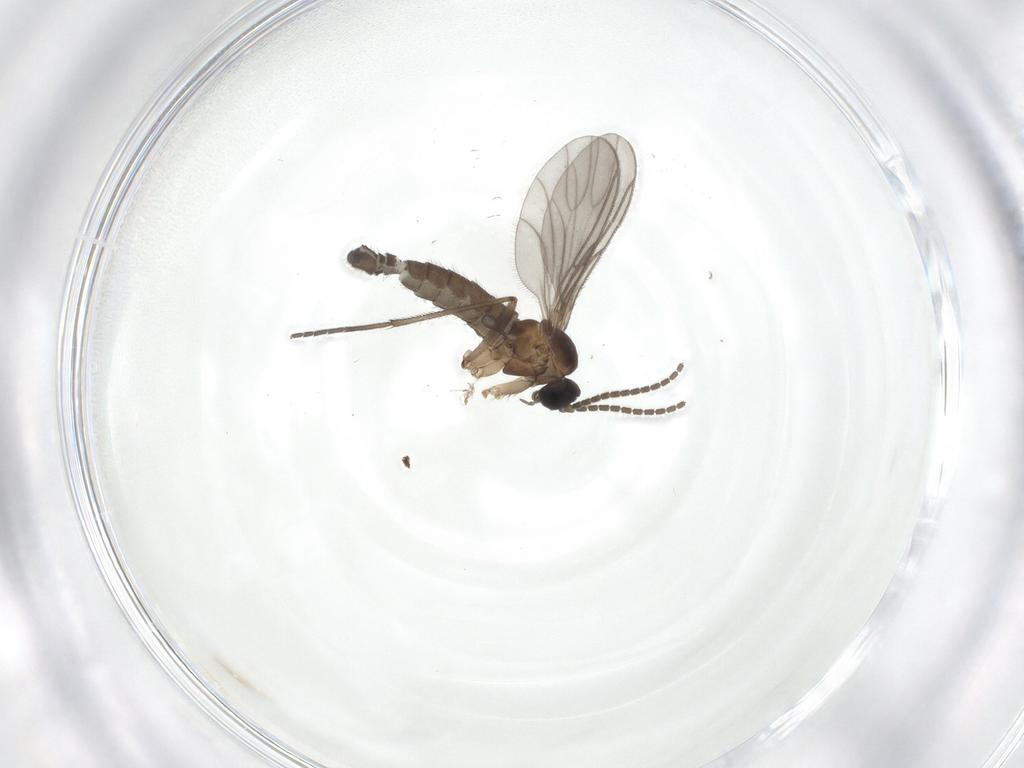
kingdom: Animalia
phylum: Arthropoda
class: Insecta
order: Diptera
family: Sciaridae
